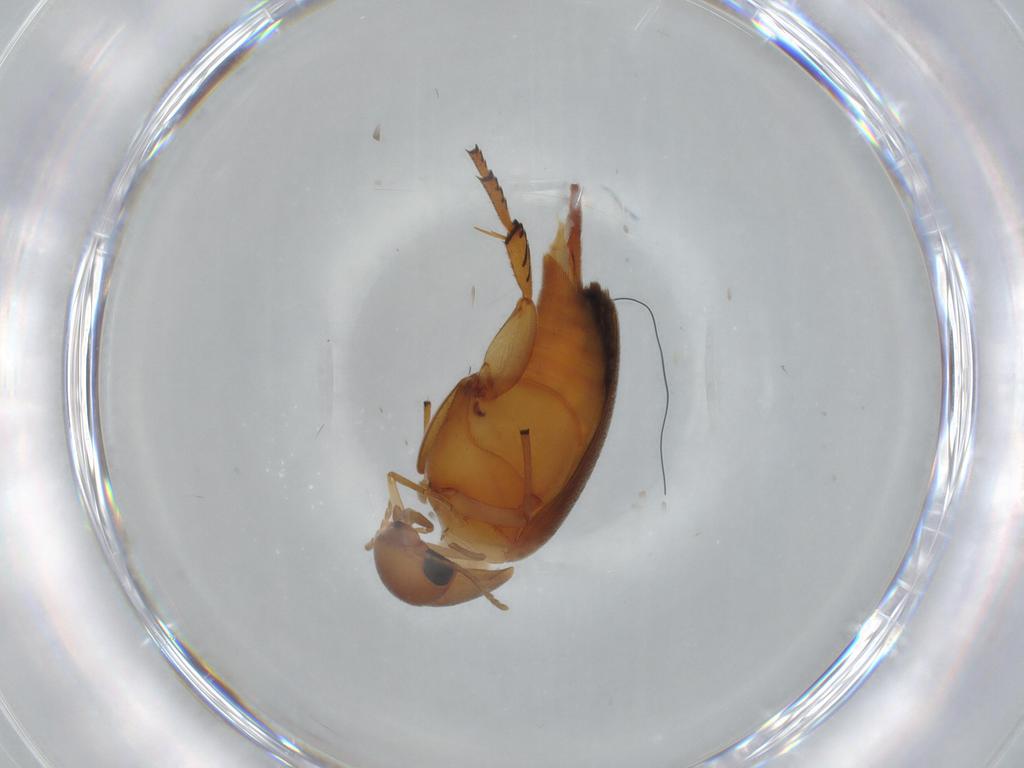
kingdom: Animalia
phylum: Arthropoda
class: Insecta
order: Coleoptera
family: Mordellidae
